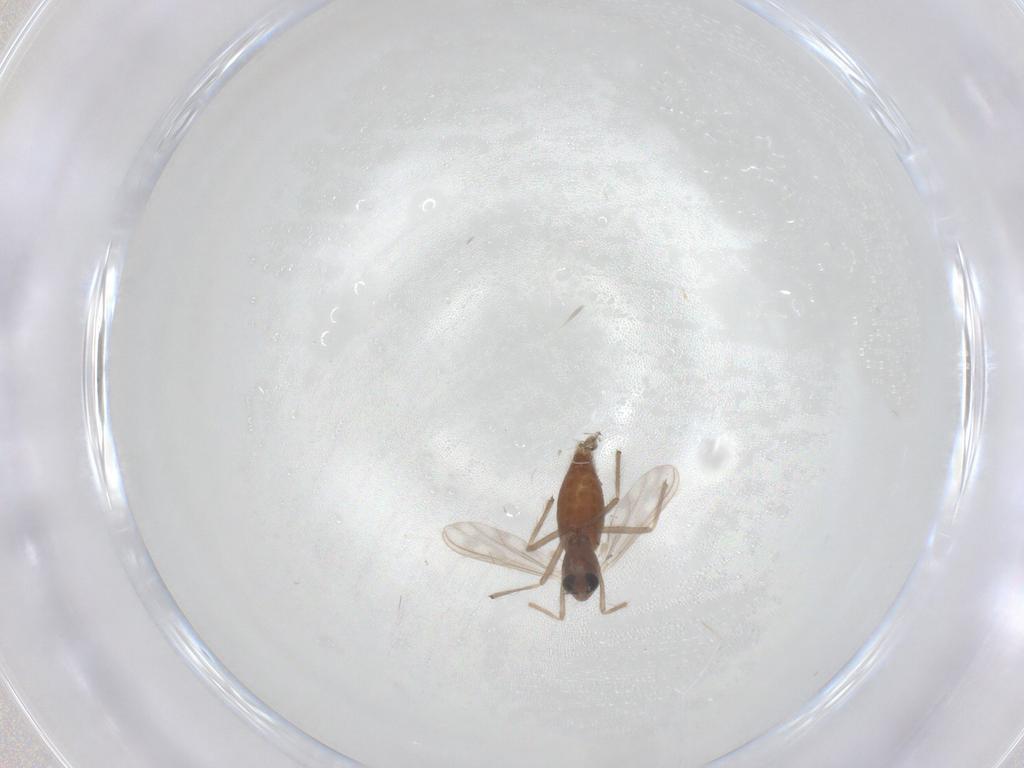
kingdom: Animalia
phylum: Arthropoda
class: Insecta
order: Diptera
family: Chironomidae
